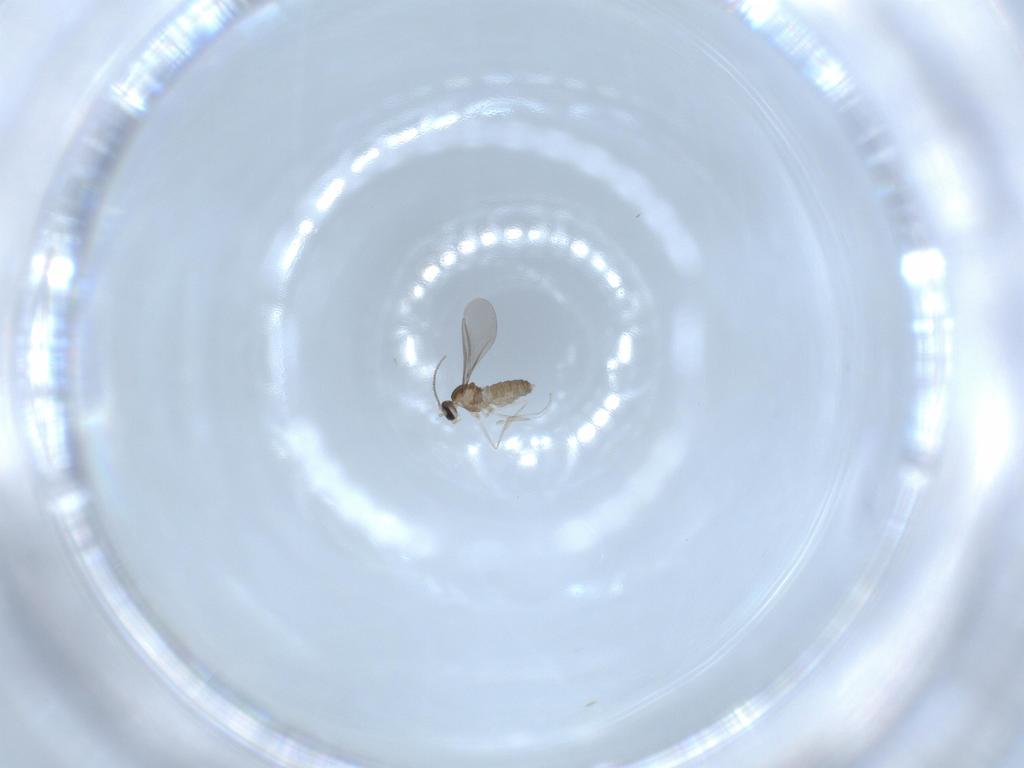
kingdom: Animalia
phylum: Arthropoda
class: Insecta
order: Diptera
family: Cecidomyiidae
